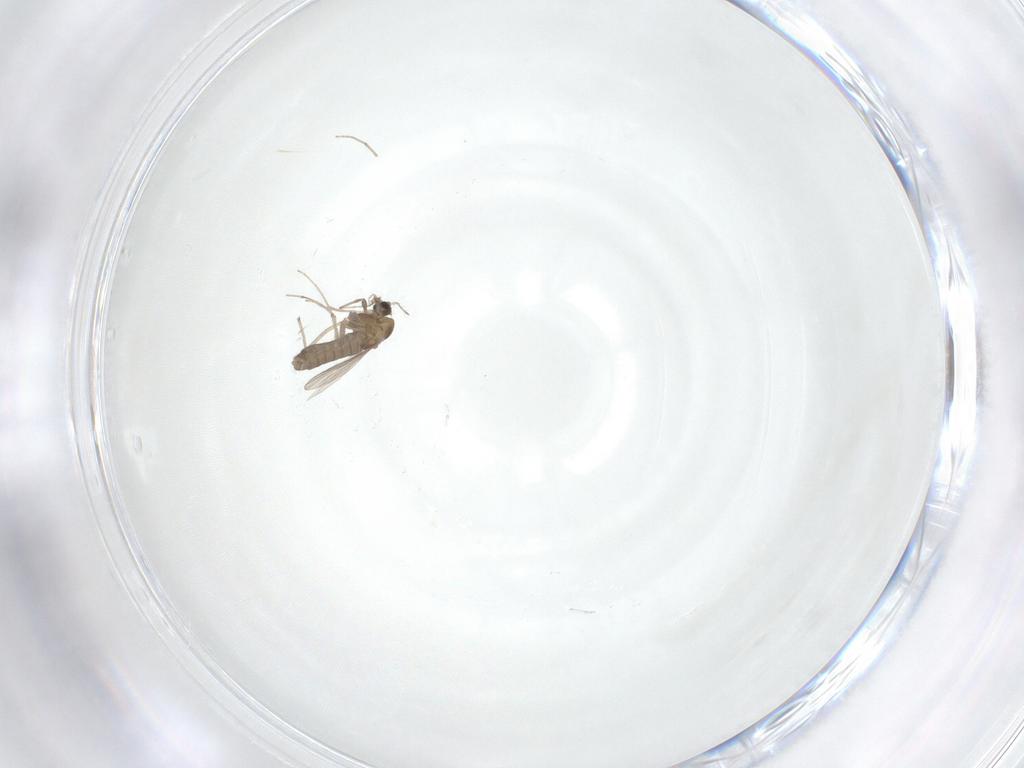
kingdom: Animalia
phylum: Arthropoda
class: Insecta
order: Diptera
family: Chironomidae
